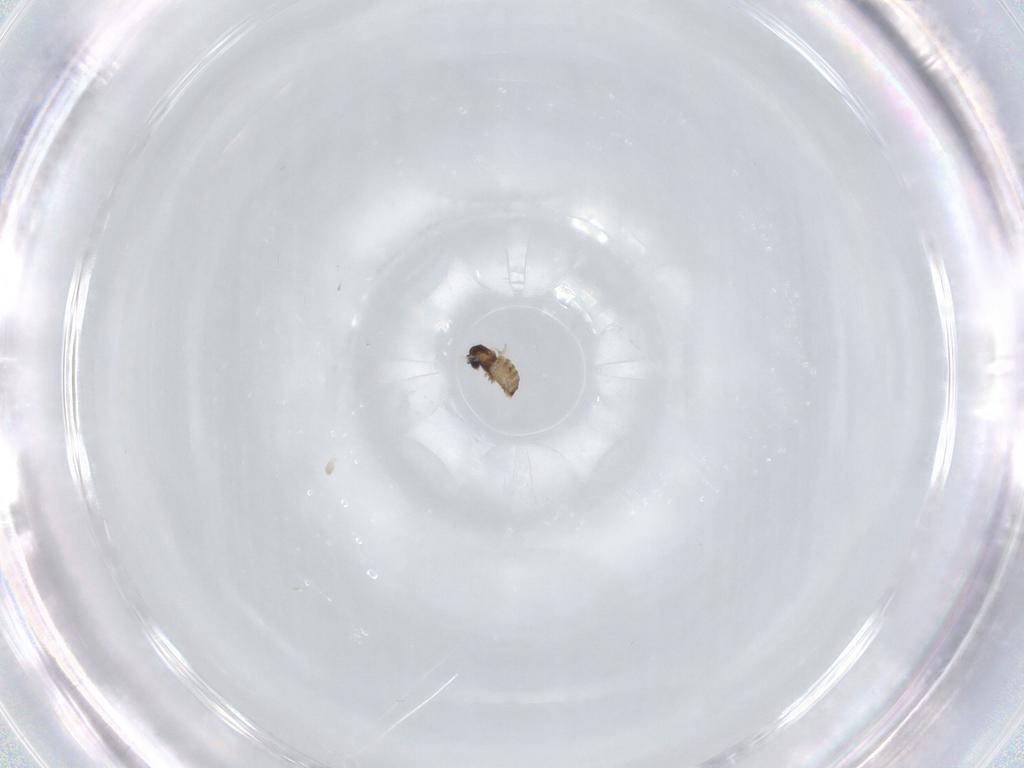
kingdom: Animalia
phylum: Arthropoda
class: Insecta
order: Diptera
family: Cecidomyiidae
